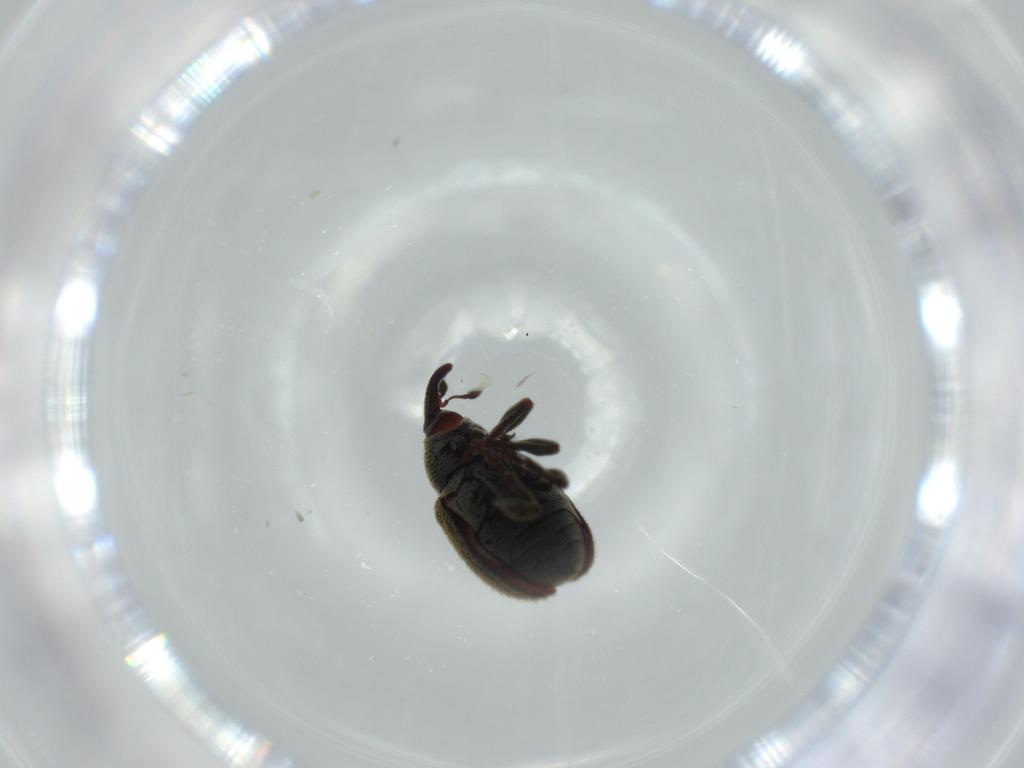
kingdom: Animalia
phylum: Arthropoda
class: Insecta
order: Coleoptera
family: Curculionidae
